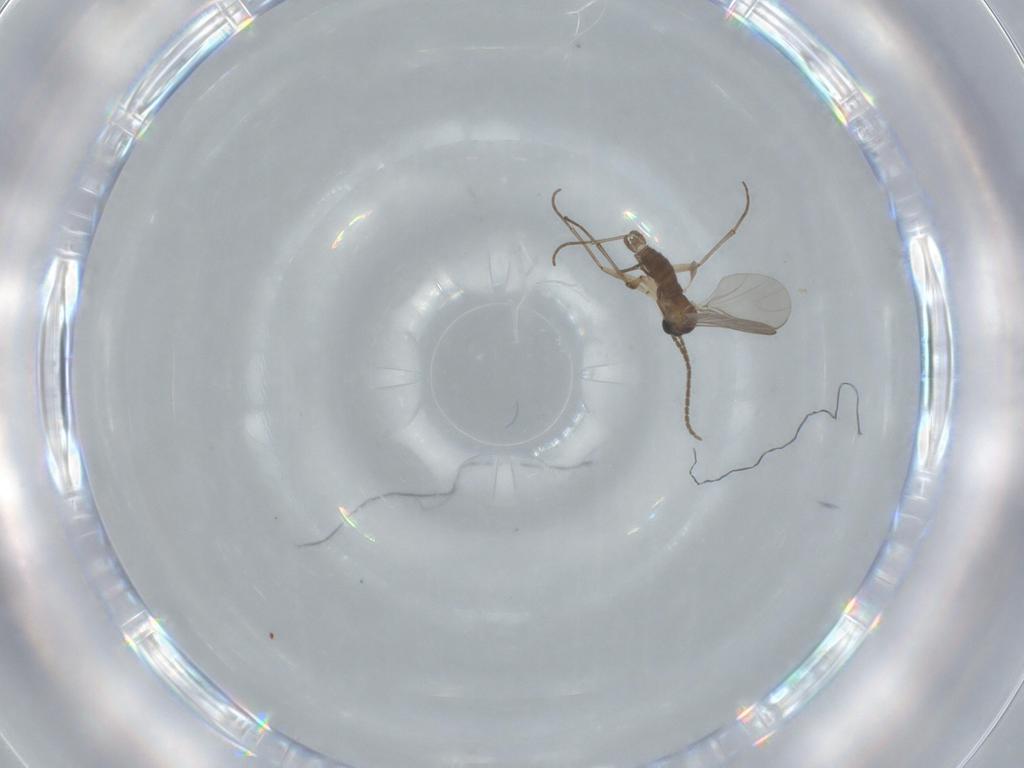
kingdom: Animalia
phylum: Arthropoda
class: Insecta
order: Diptera
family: Sciaridae
